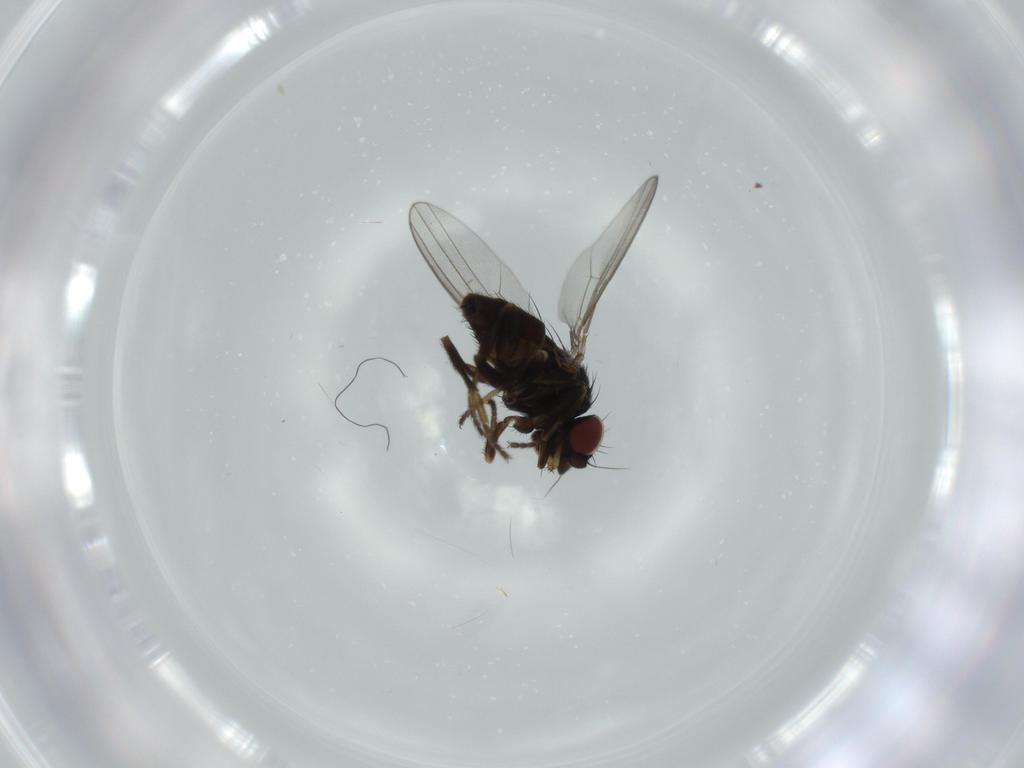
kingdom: Animalia
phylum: Arthropoda
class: Insecta
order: Diptera
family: Milichiidae
